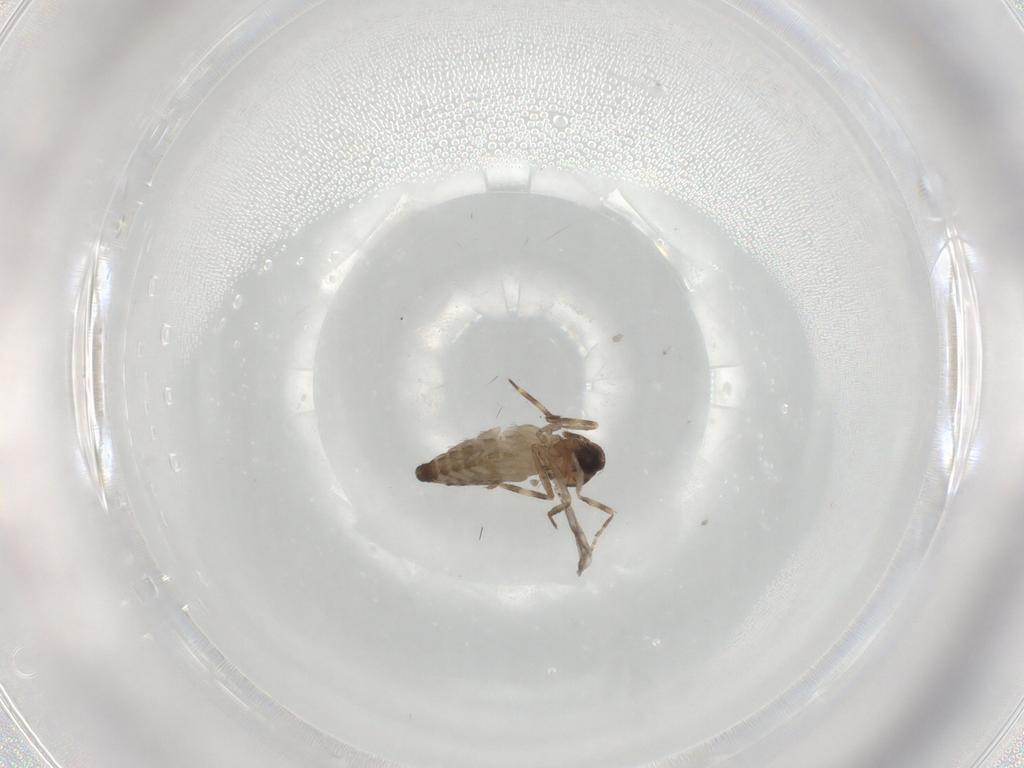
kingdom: Animalia
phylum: Arthropoda
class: Insecta
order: Diptera
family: Ceratopogonidae
